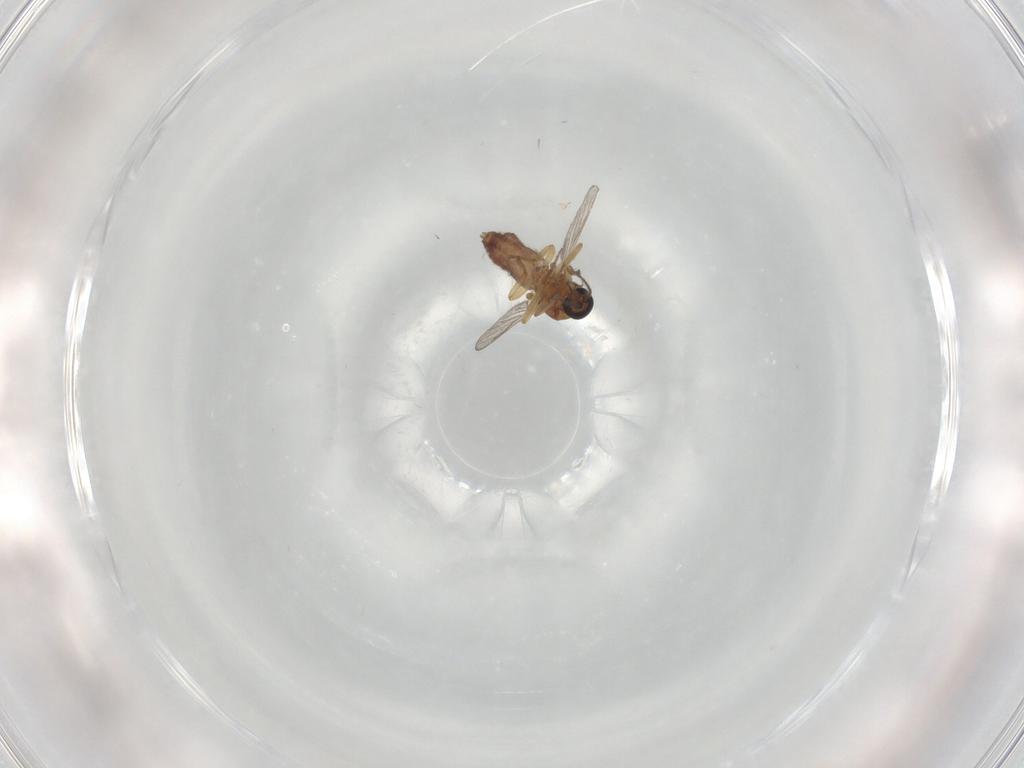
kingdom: Animalia
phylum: Arthropoda
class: Insecta
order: Diptera
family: Ceratopogonidae
